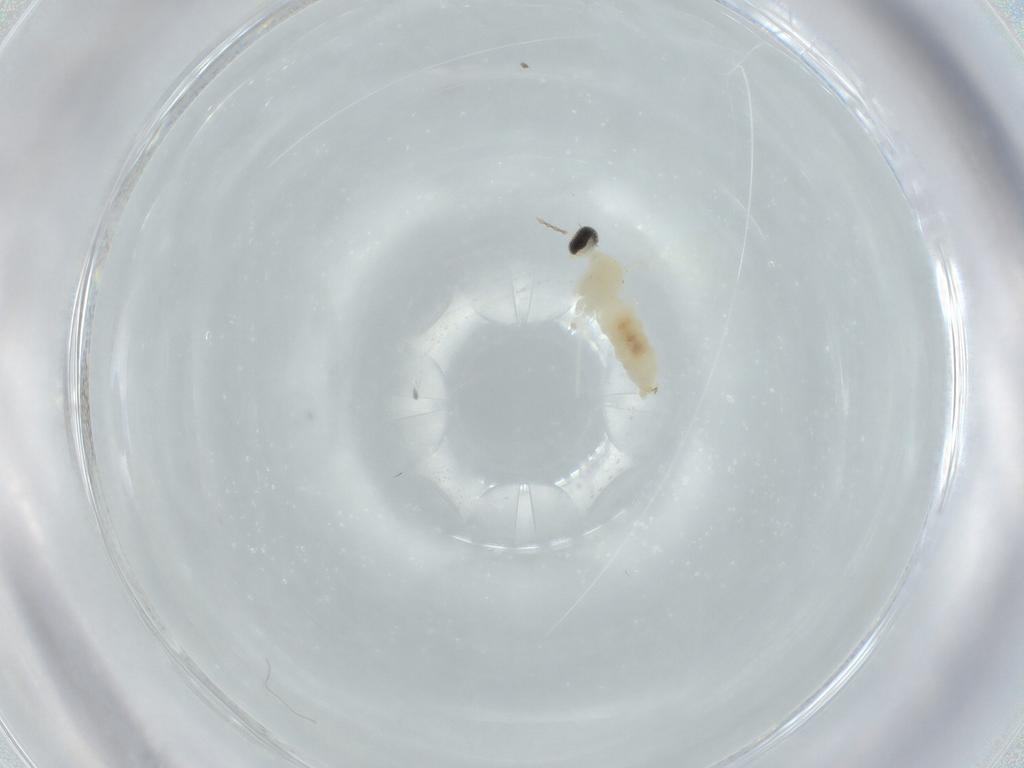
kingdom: Animalia
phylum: Arthropoda
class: Insecta
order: Diptera
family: Cecidomyiidae
